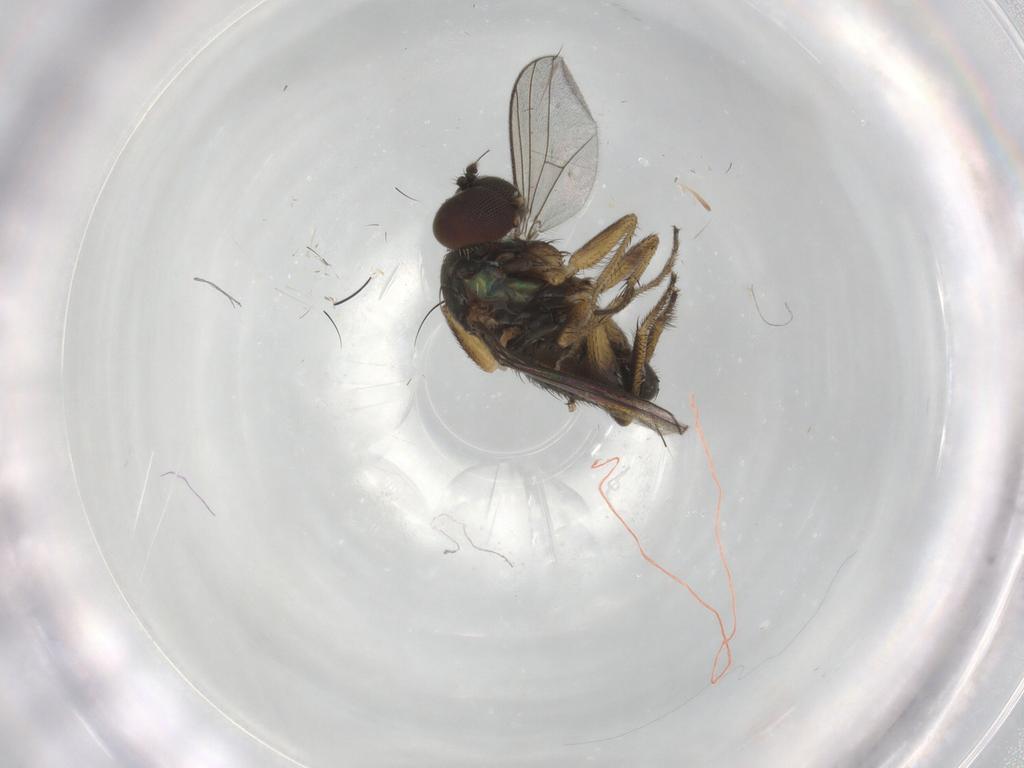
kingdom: Animalia
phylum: Arthropoda
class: Insecta
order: Diptera
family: Dolichopodidae
